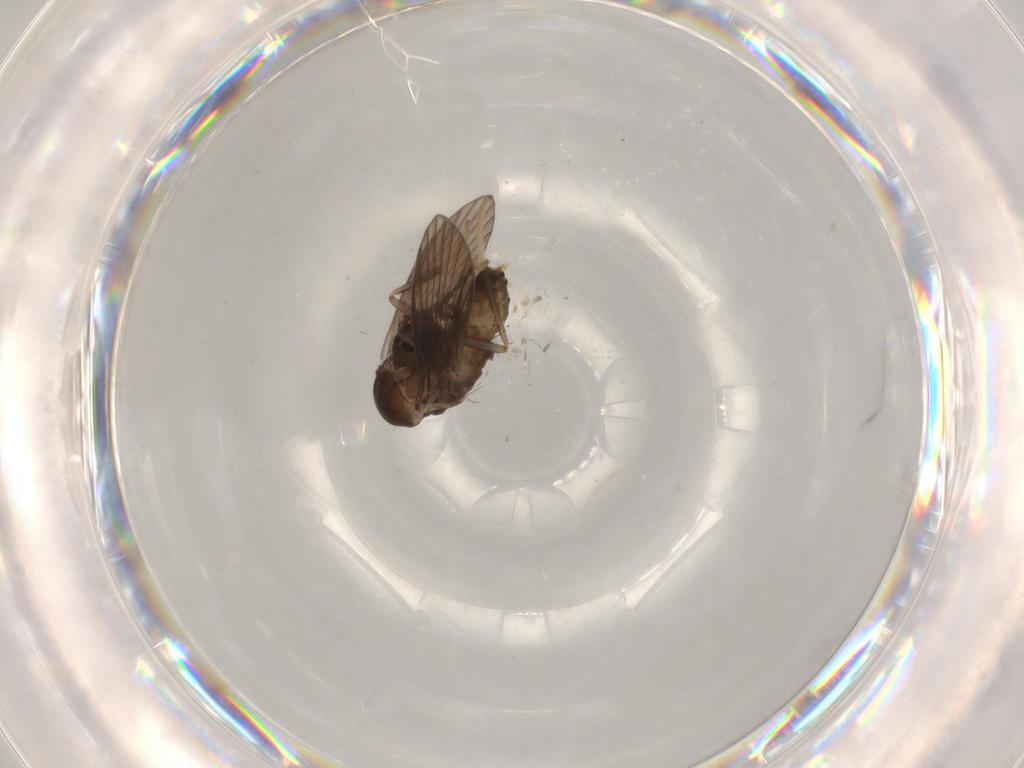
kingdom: Animalia
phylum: Arthropoda
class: Insecta
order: Diptera
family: Psychodidae
